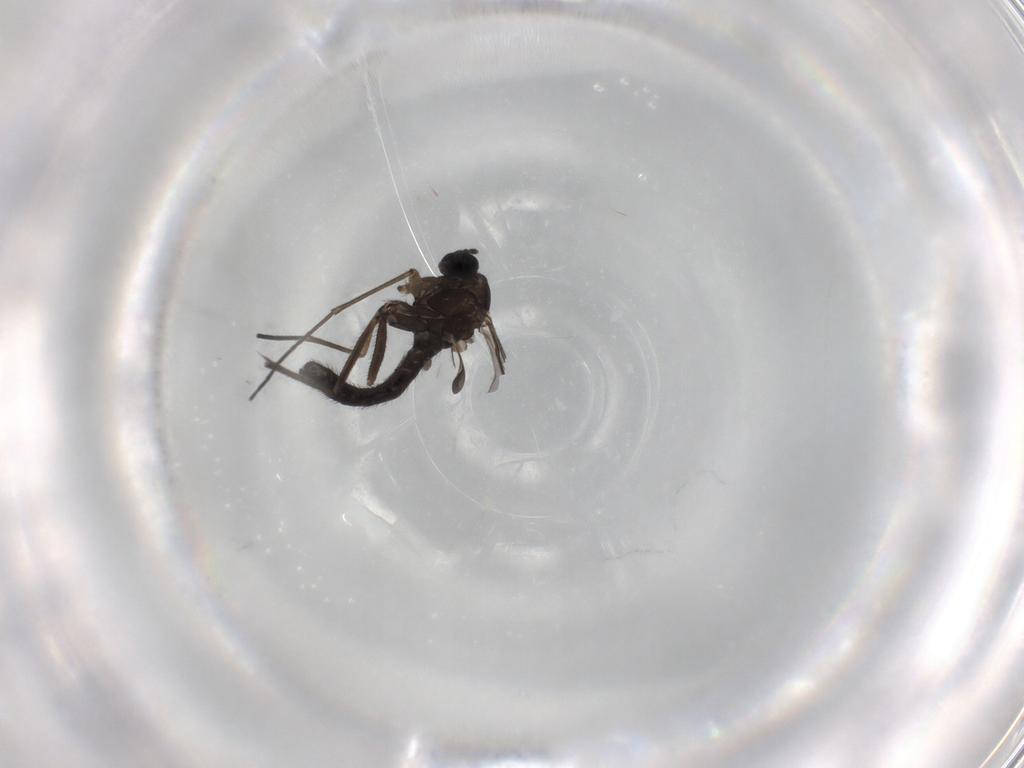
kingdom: Animalia
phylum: Arthropoda
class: Insecta
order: Diptera
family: Sciaridae
